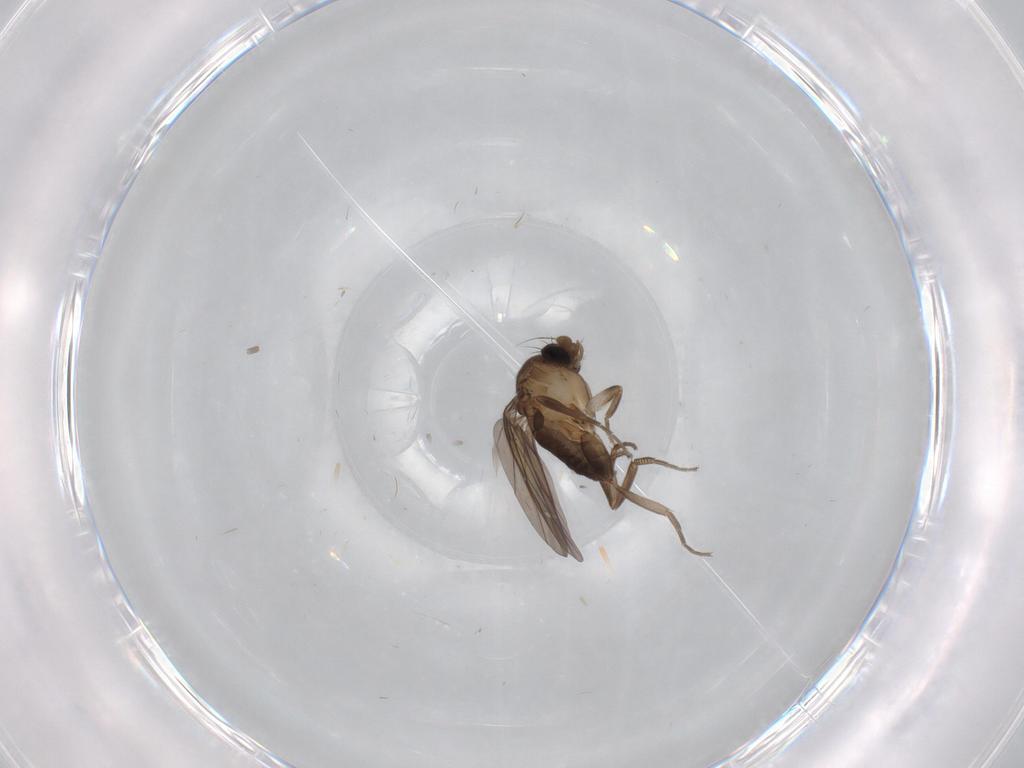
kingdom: Animalia
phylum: Arthropoda
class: Insecta
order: Diptera
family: Limoniidae
